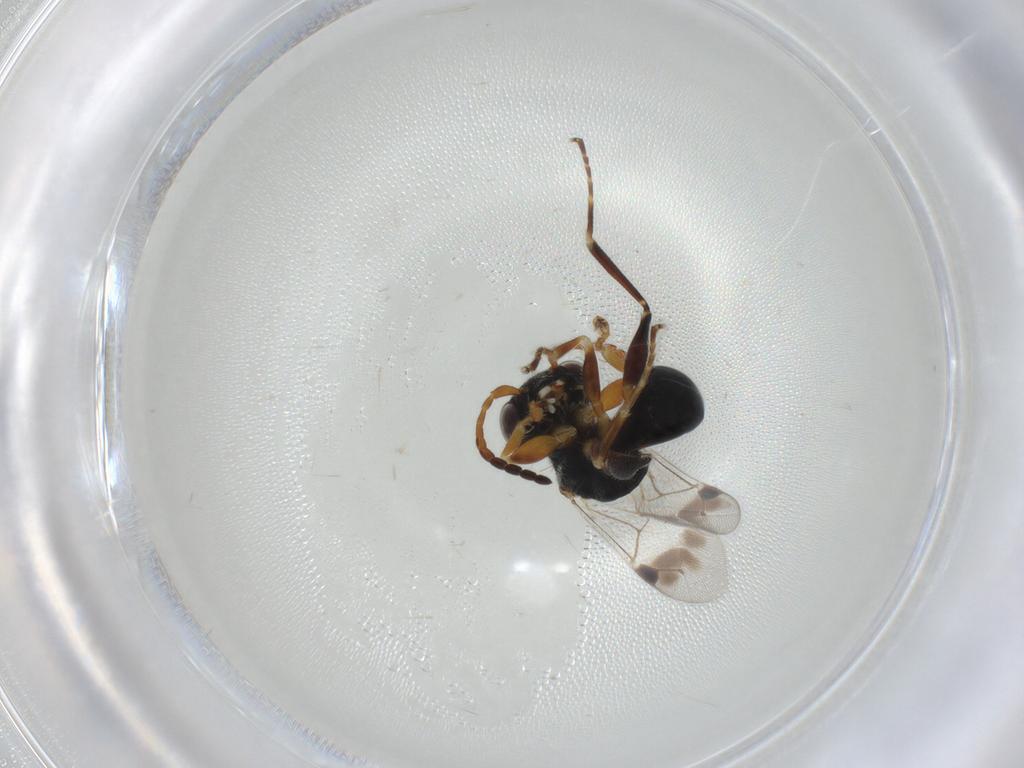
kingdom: Animalia
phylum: Arthropoda
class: Insecta
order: Hymenoptera
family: Dryinidae
